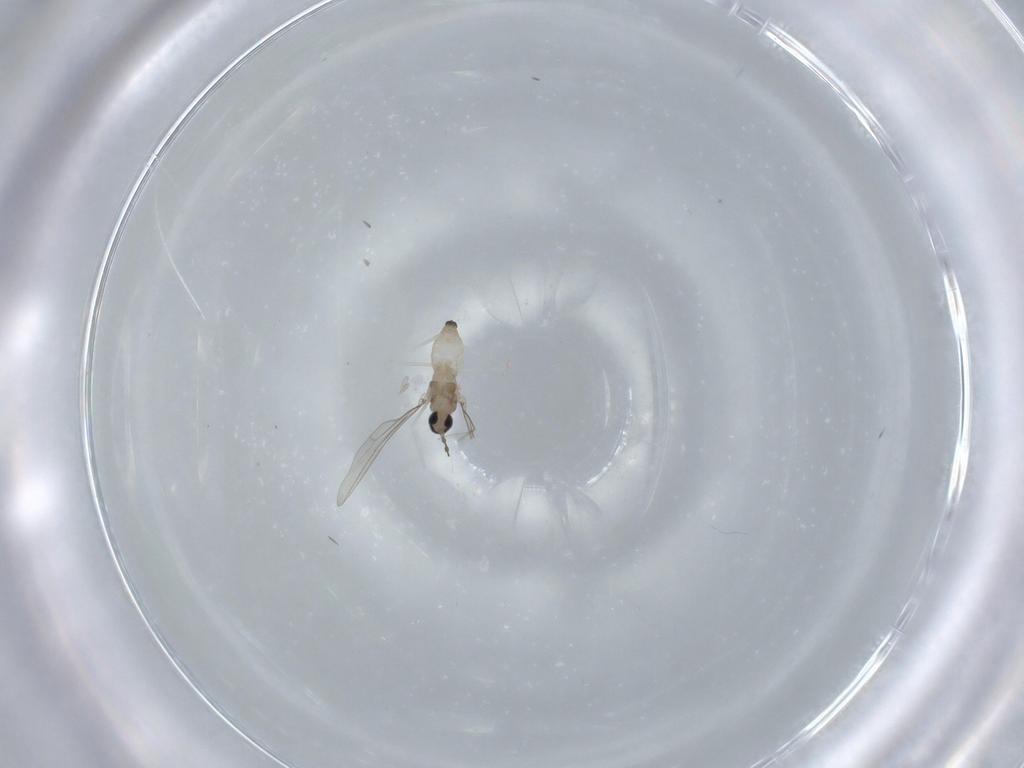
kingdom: Animalia
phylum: Arthropoda
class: Insecta
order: Diptera
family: Cecidomyiidae
